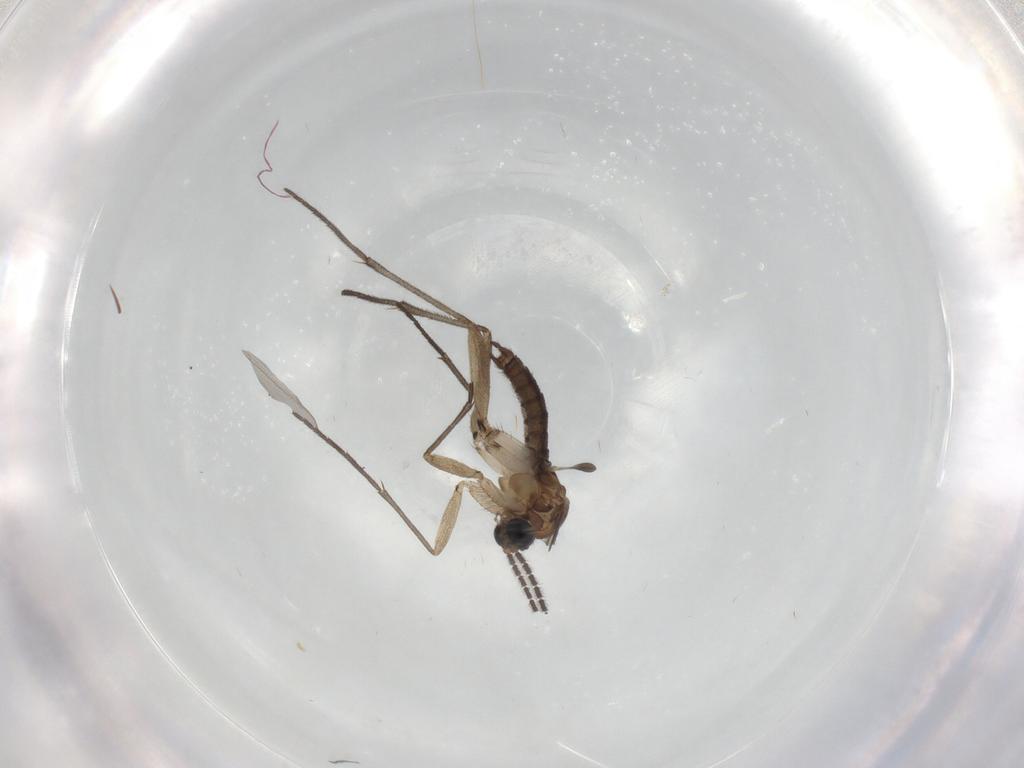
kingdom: Animalia
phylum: Arthropoda
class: Insecta
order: Diptera
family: Sciaridae
